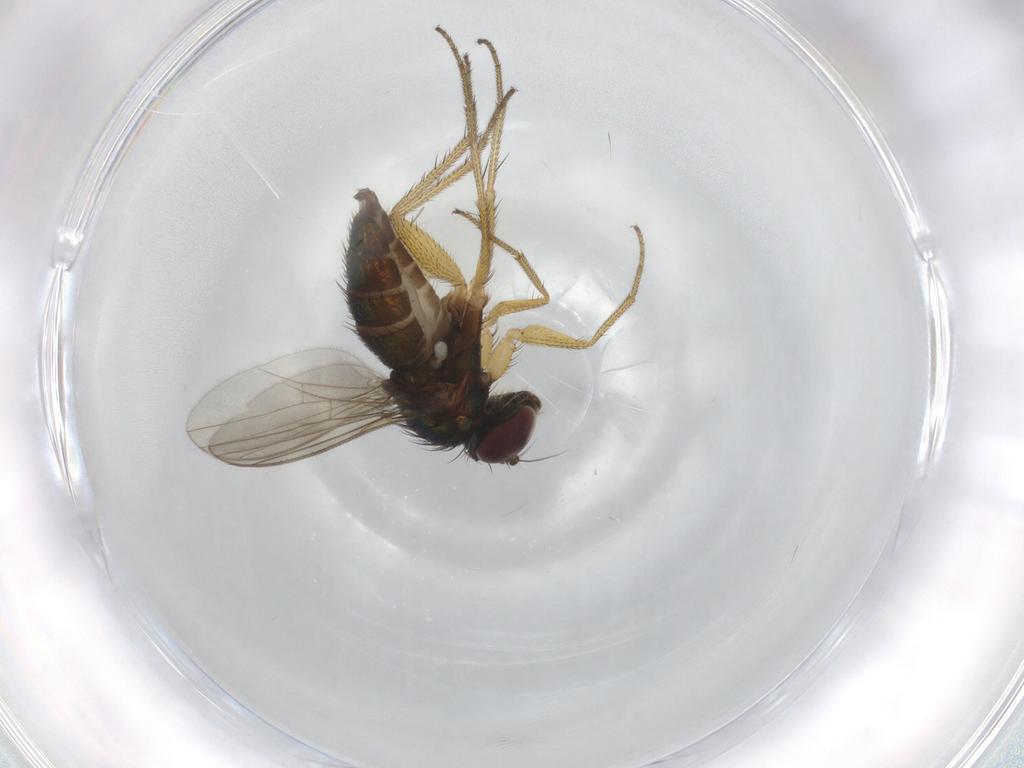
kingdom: Animalia
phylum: Arthropoda
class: Insecta
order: Diptera
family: Dolichopodidae
